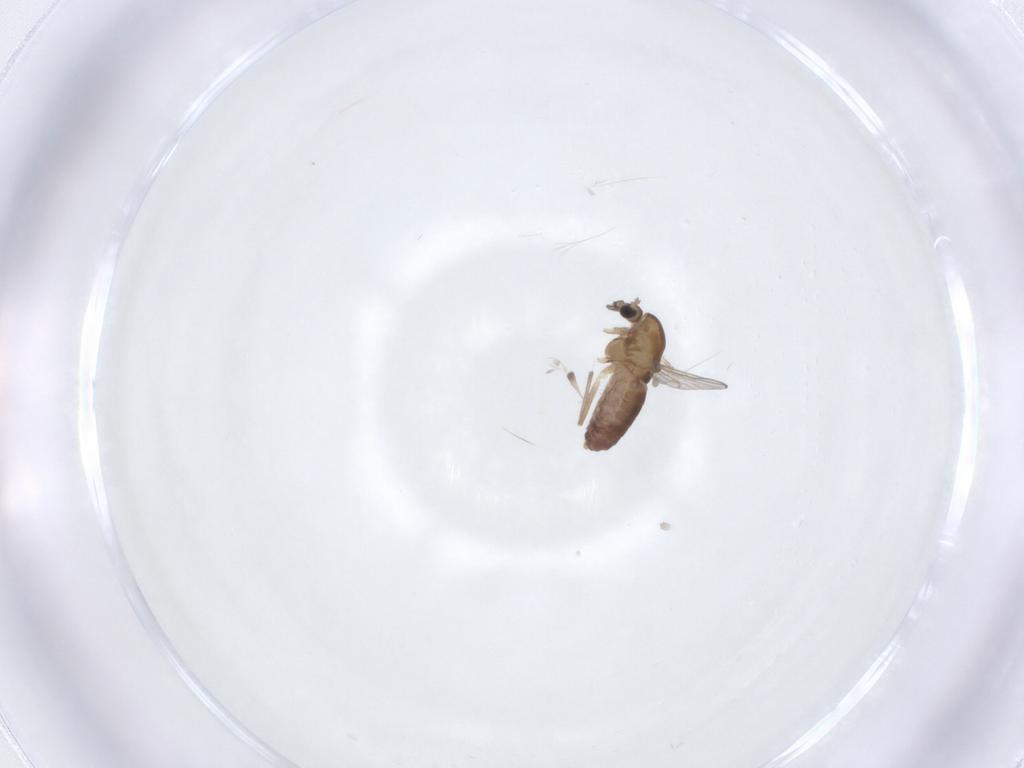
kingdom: Animalia
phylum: Arthropoda
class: Insecta
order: Diptera
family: Chironomidae
